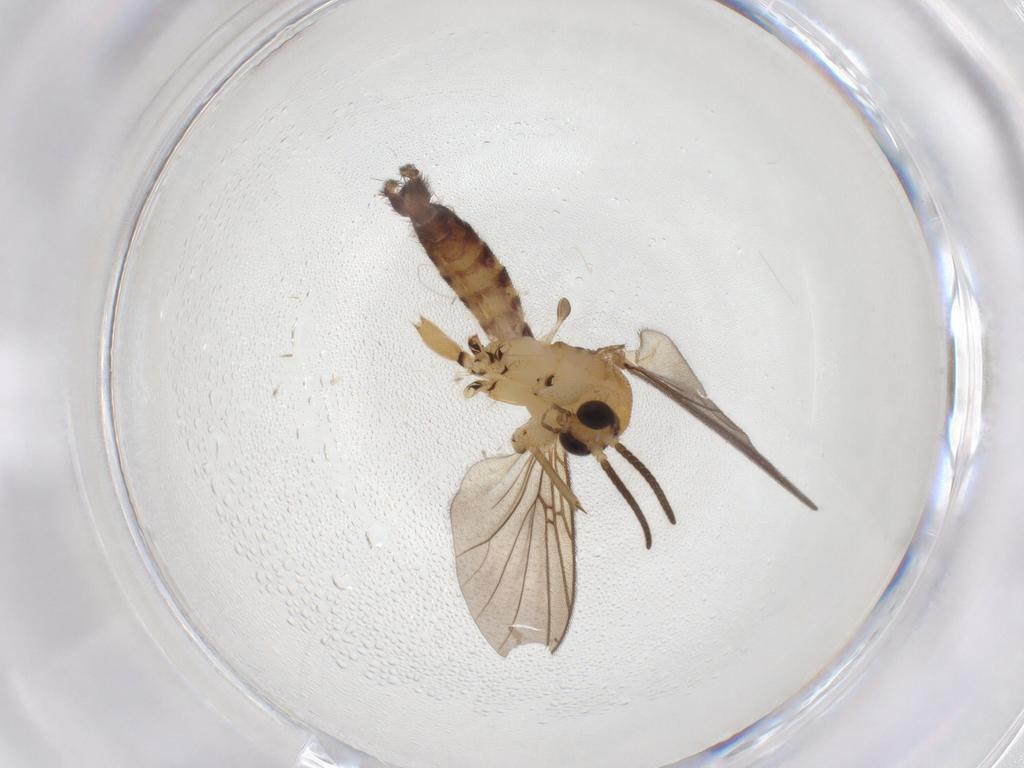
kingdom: Animalia
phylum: Arthropoda
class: Insecta
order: Diptera
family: Mycetophilidae
